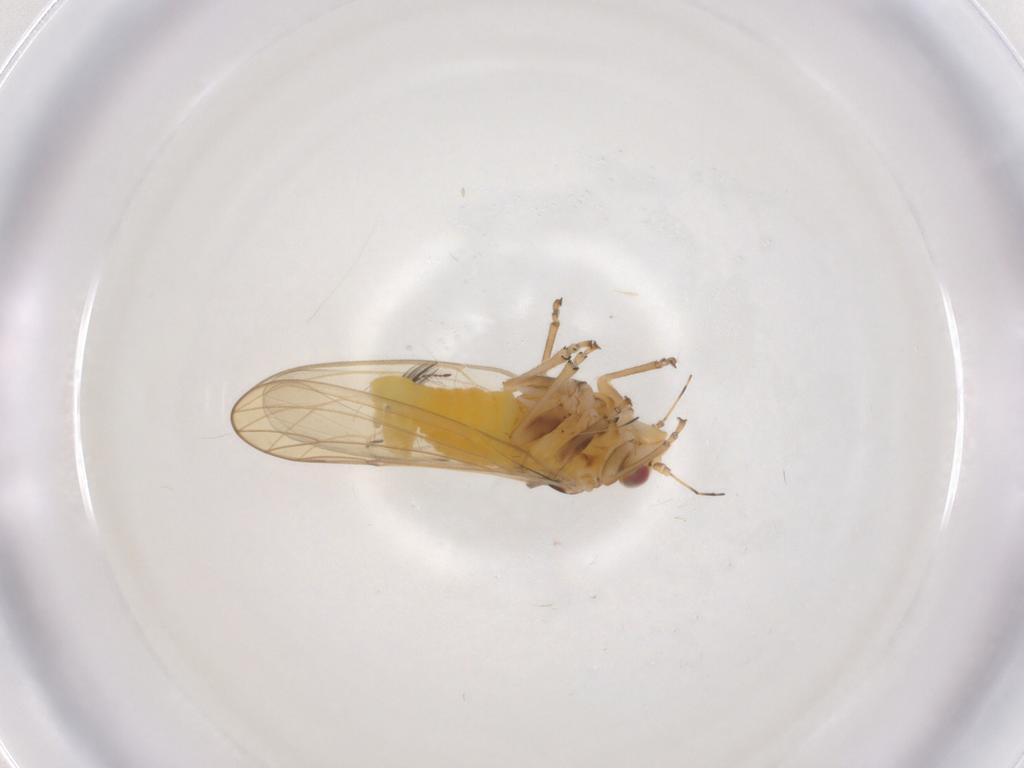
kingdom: Animalia
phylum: Arthropoda
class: Insecta
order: Hemiptera
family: Psylloidea_incertae_sedis
